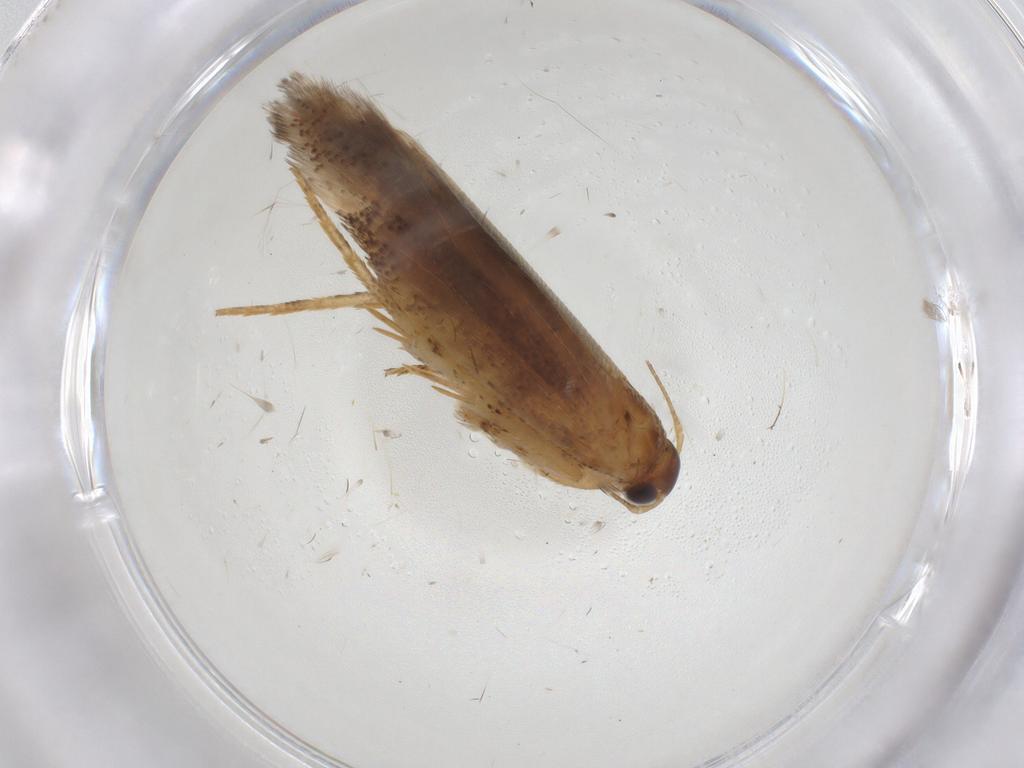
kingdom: Animalia
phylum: Arthropoda
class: Insecta
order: Lepidoptera
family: Gelechiidae
